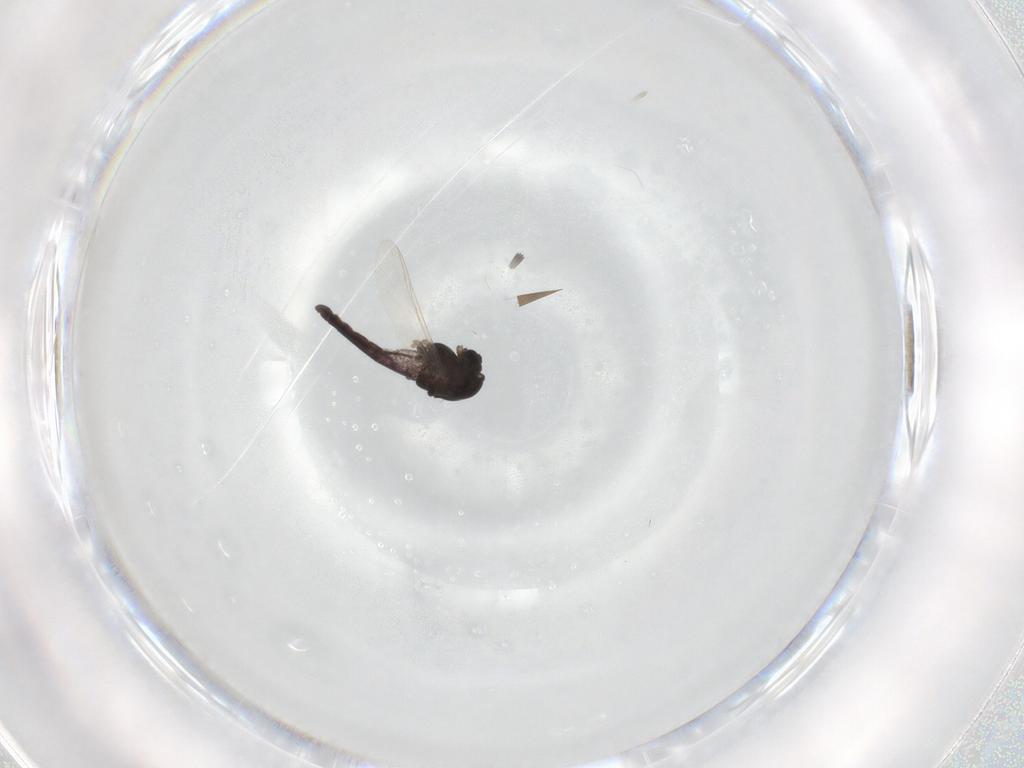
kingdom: Animalia
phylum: Arthropoda
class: Insecta
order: Diptera
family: Chironomidae
